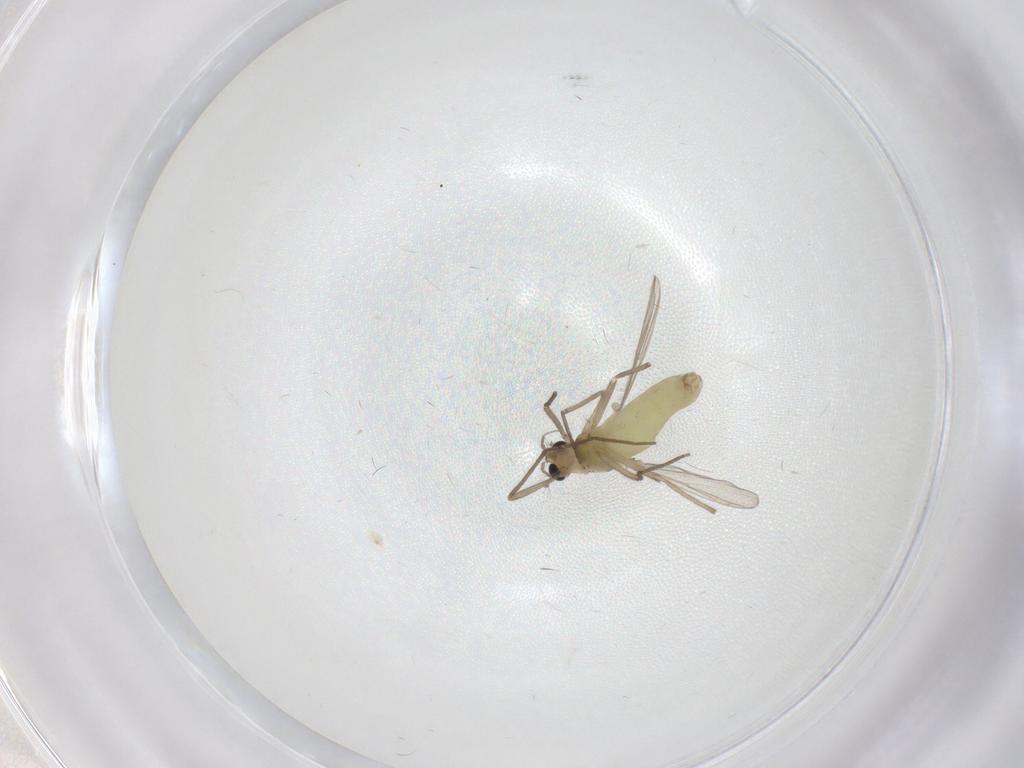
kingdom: Animalia
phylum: Arthropoda
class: Insecta
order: Diptera
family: Chironomidae
